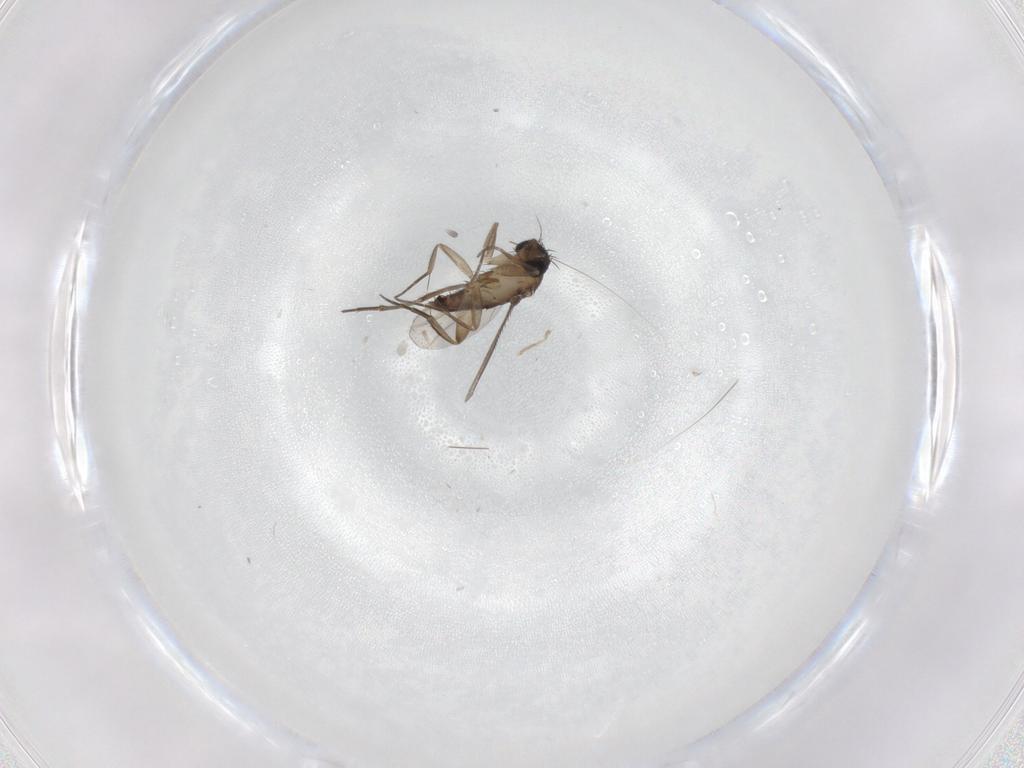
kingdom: Animalia
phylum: Arthropoda
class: Insecta
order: Diptera
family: Phoridae
